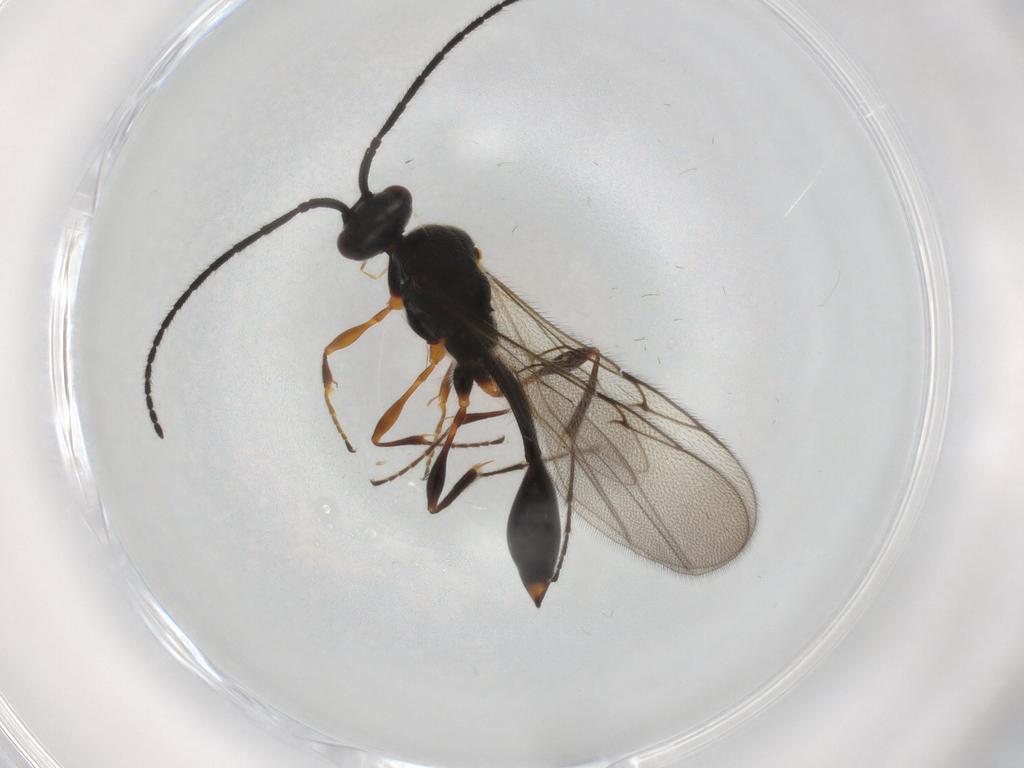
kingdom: Animalia
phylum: Arthropoda
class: Insecta
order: Hymenoptera
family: Diapriidae
